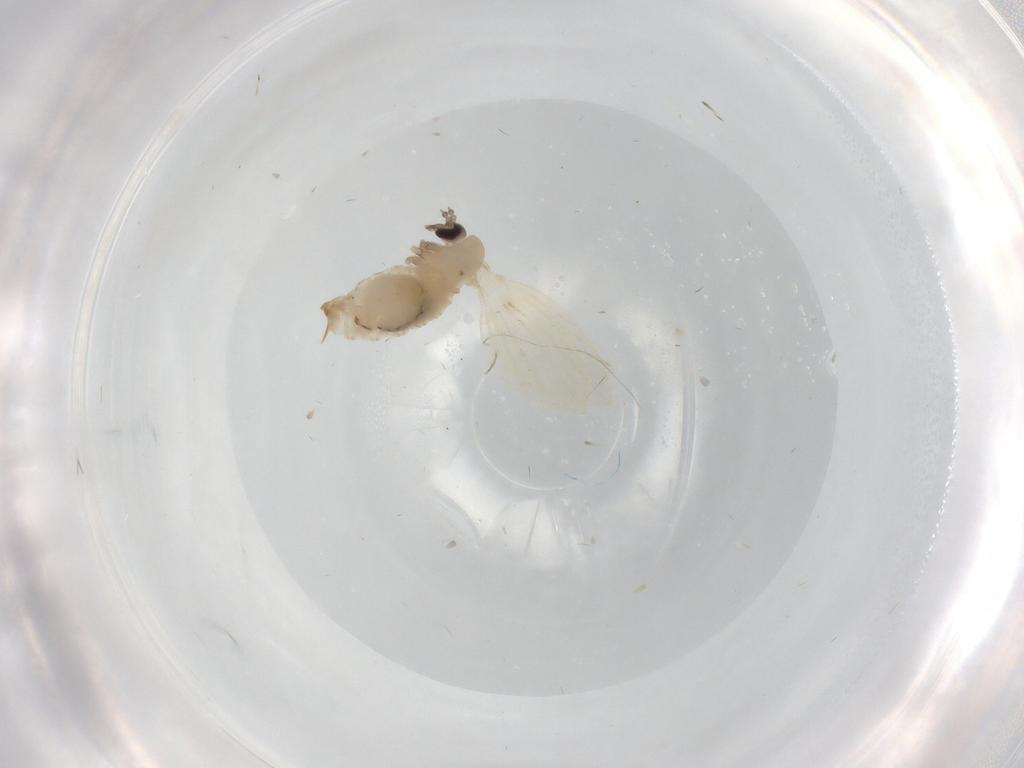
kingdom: Animalia
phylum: Arthropoda
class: Insecta
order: Diptera
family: Psychodidae
